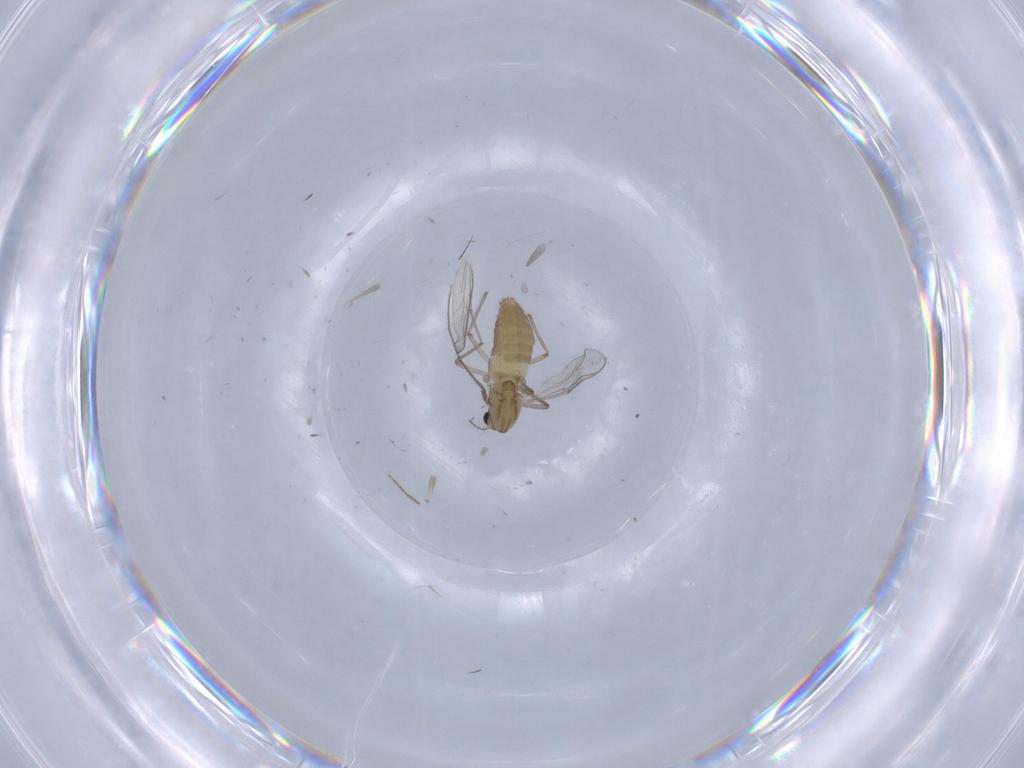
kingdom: Animalia
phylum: Arthropoda
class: Insecta
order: Diptera
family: Chironomidae
